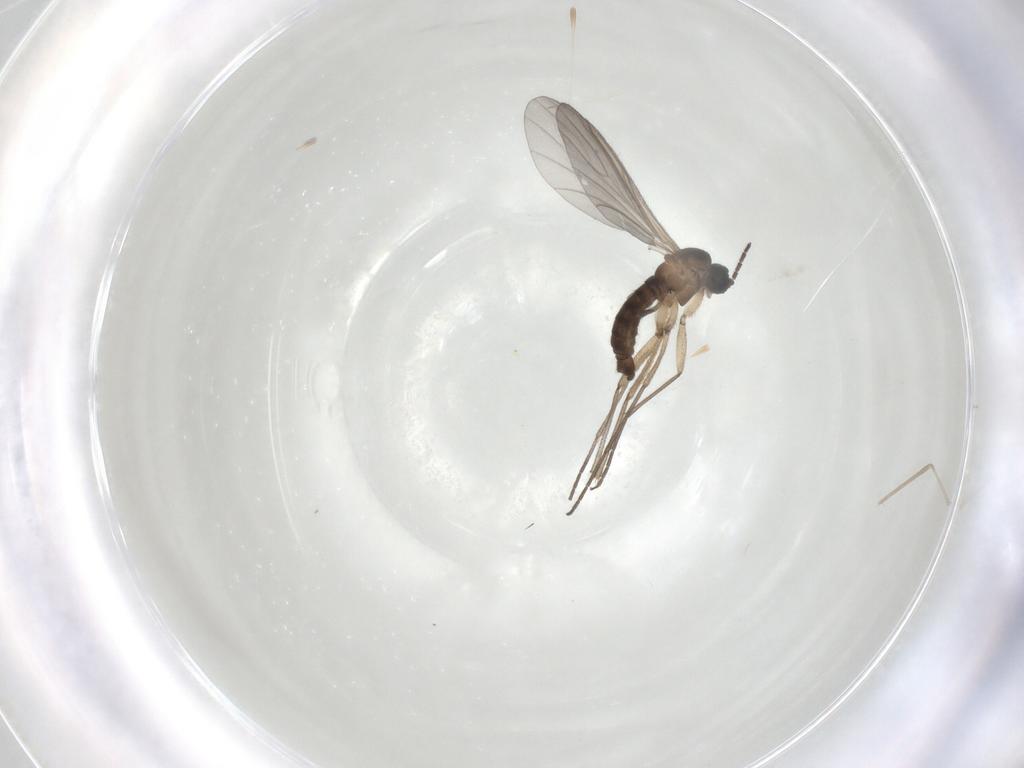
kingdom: Animalia
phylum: Arthropoda
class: Insecta
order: Diptera
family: Sciaridae
